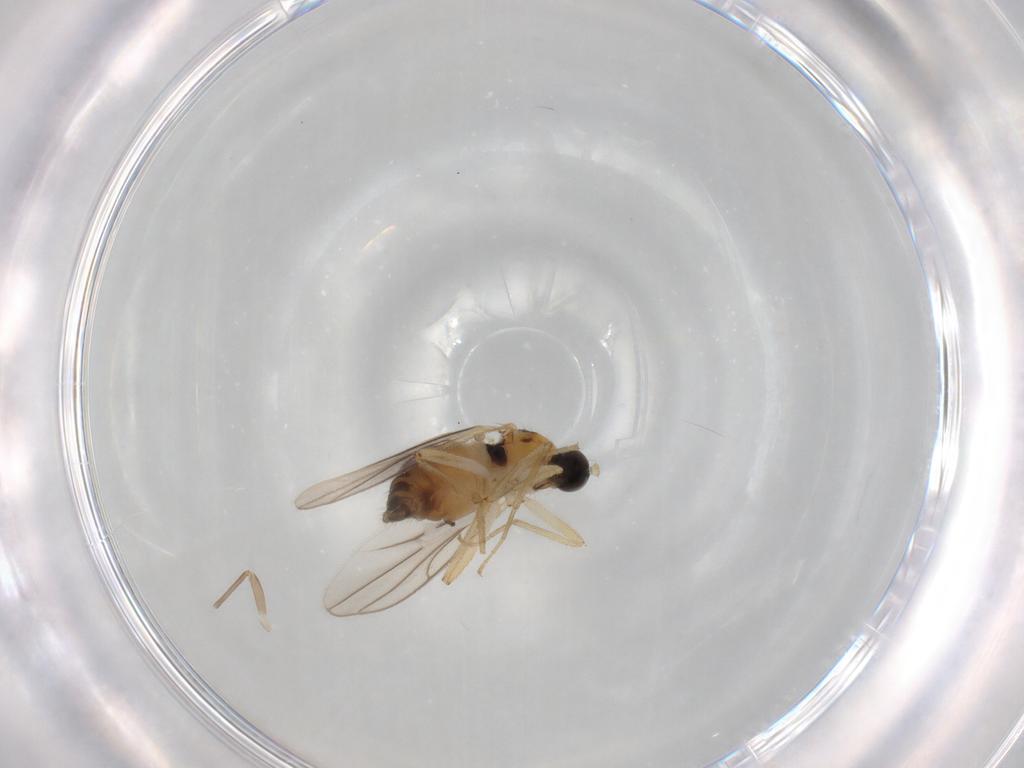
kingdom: Animalia
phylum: Arthropoda
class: Insecta
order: Diptera
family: Hybotidae
